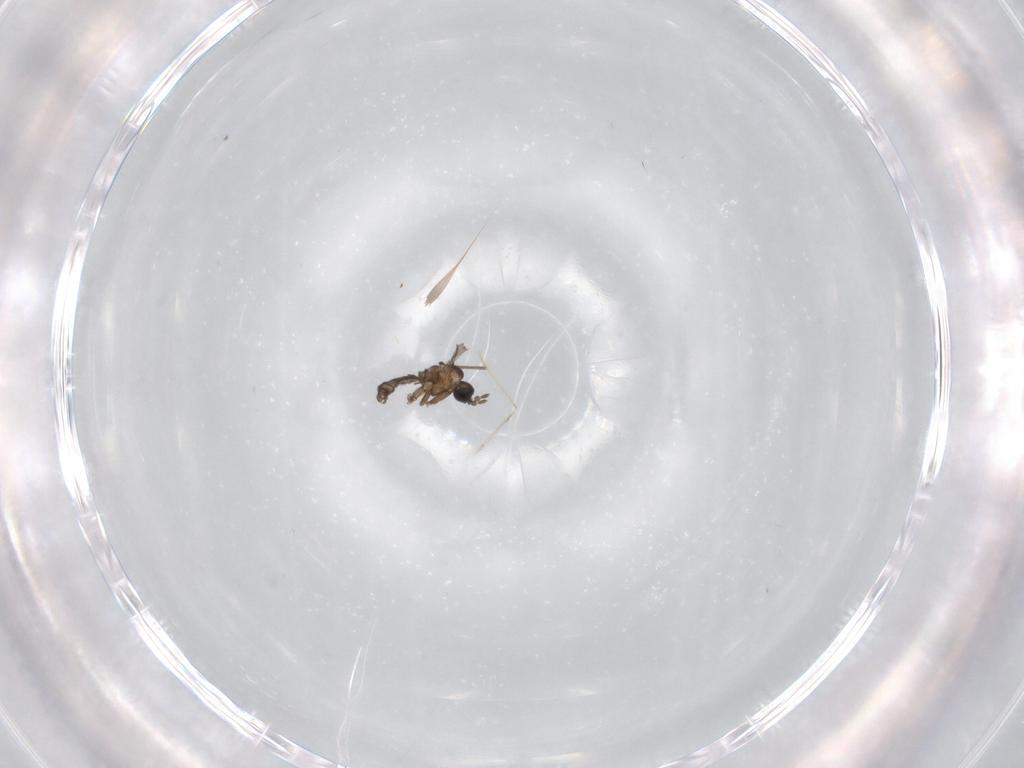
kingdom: Animalia
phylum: Arthropoda
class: Insecta
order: Diptera
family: Sciaridae
